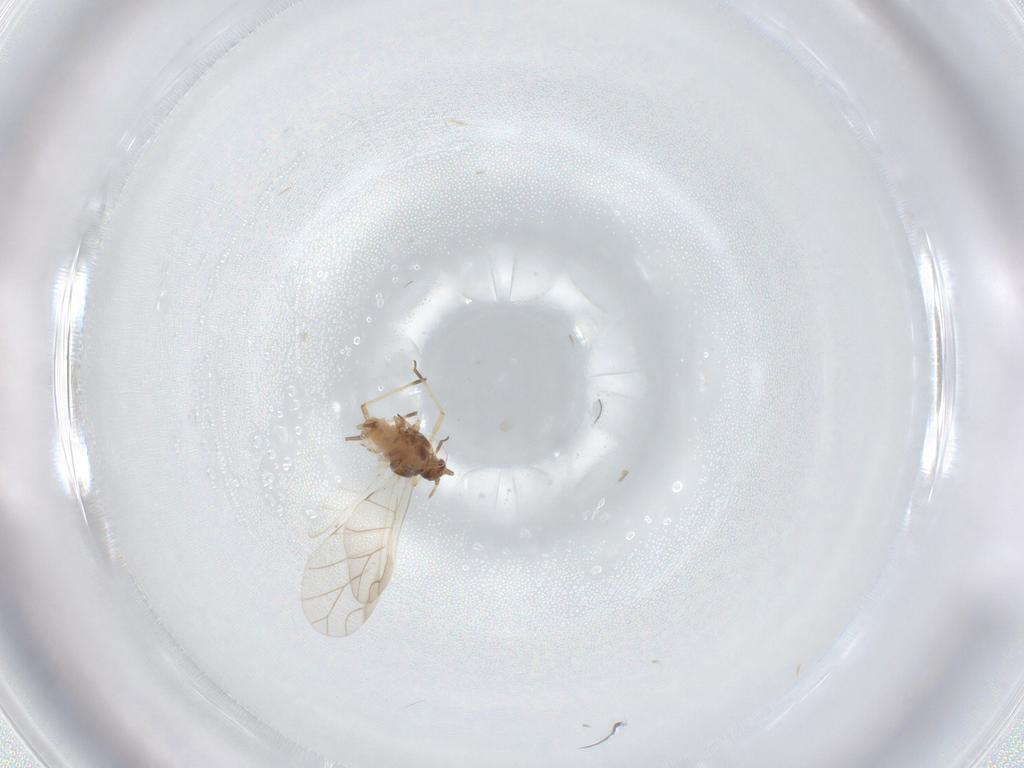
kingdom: Animalia
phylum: Arthropoda
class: Insecta
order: Hemiptera
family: Aphididae
